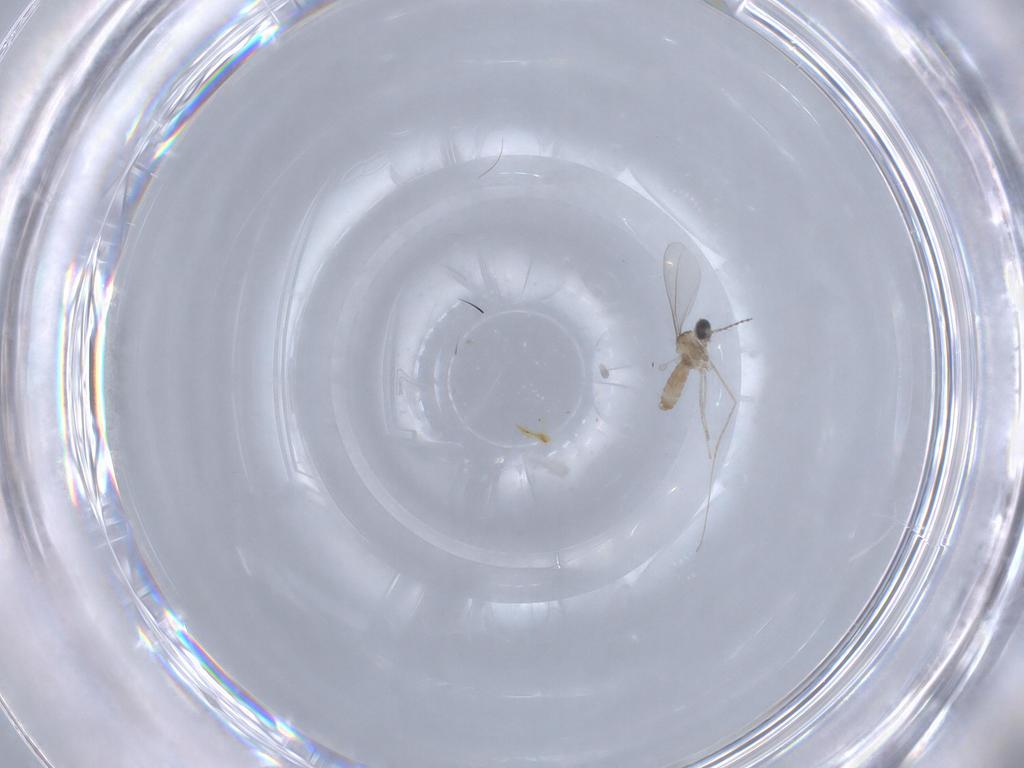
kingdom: Animalia
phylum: Arthropoda
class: Insecta
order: Diptera
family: Cecidomyiidae
